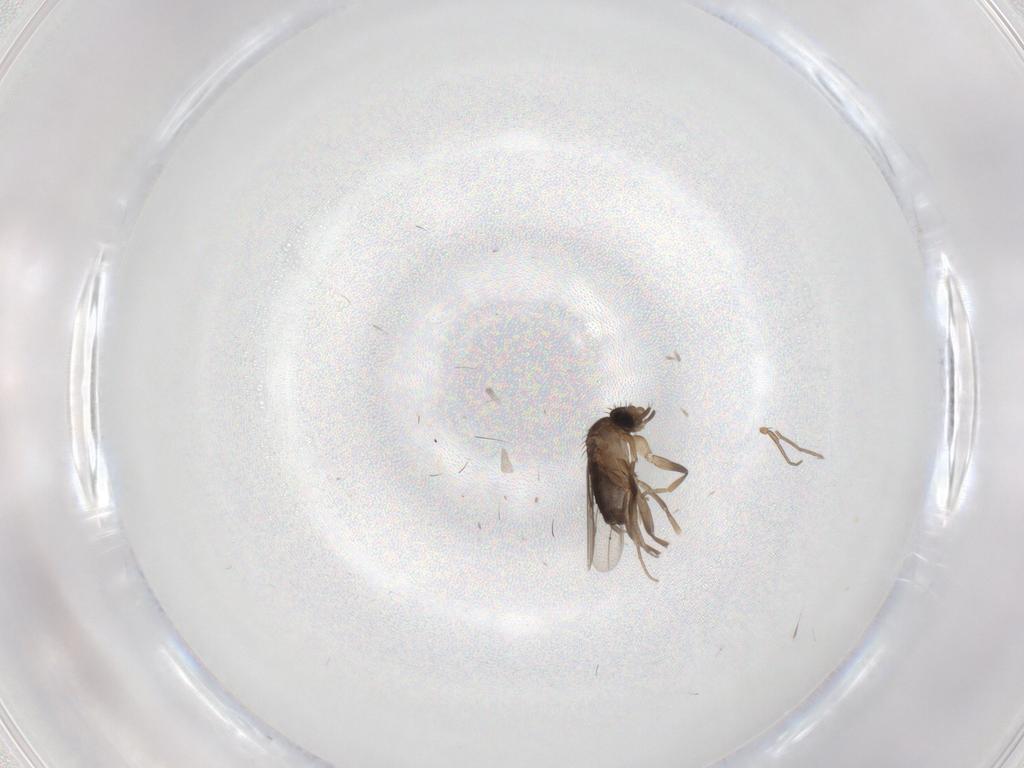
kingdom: Animalia
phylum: Arthropoda
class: Insecta
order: Diptera
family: Phoridae
